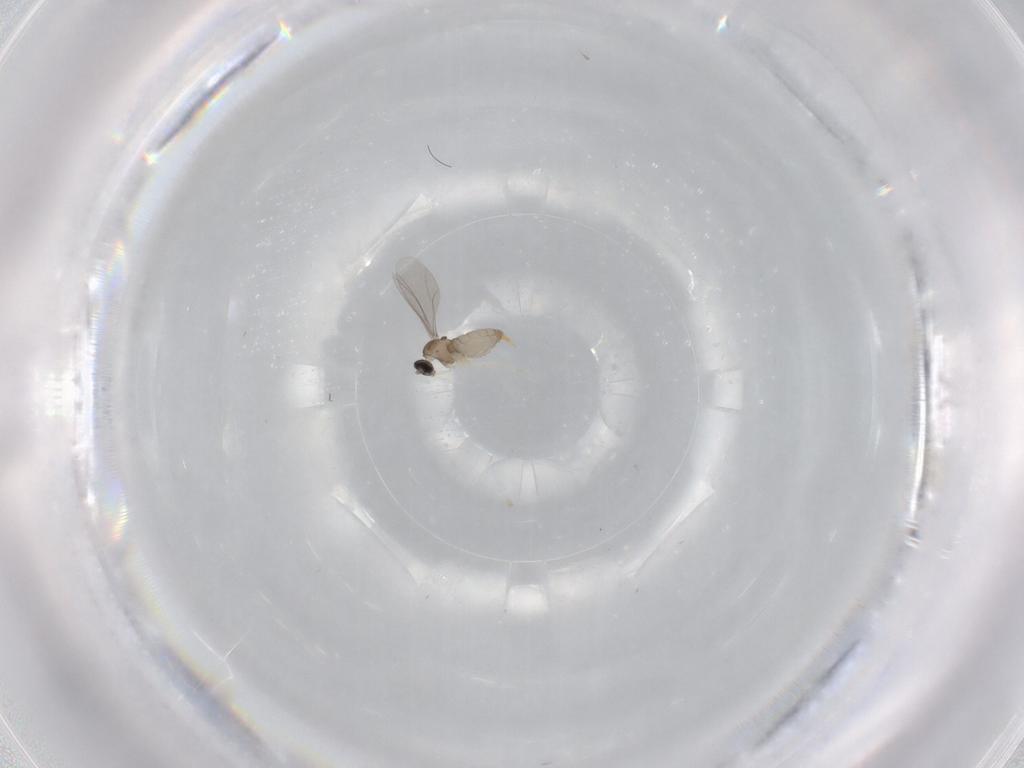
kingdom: Animalia
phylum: Arthropoda
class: Insecta
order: Diptera
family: Cecidomyiidae
